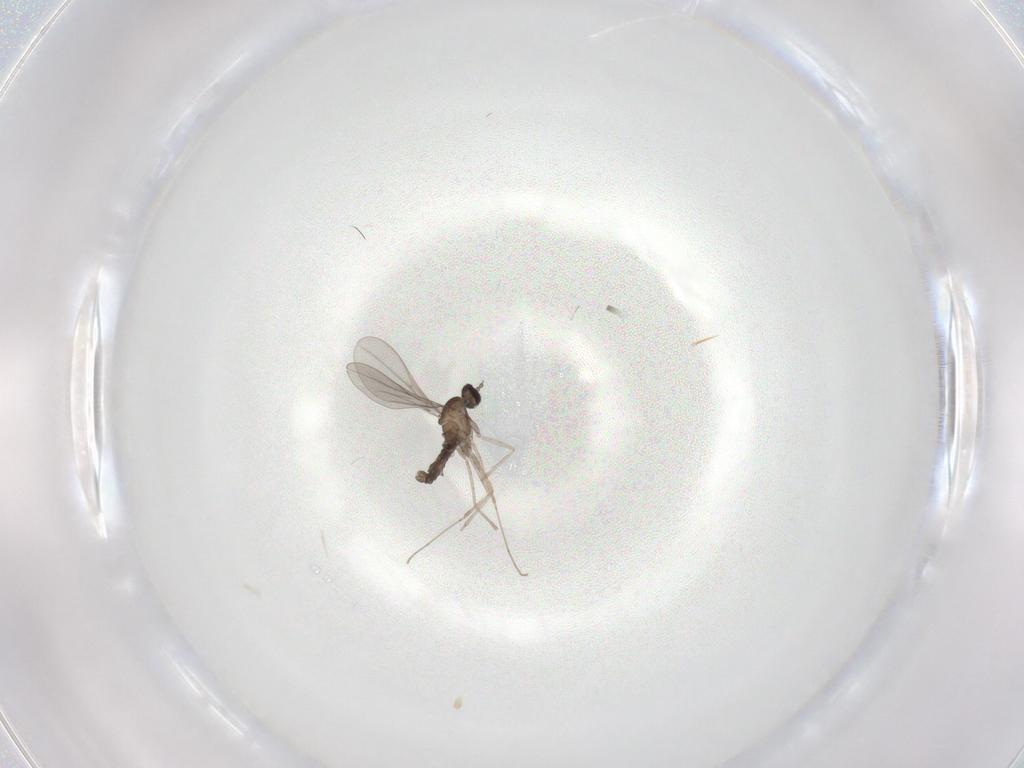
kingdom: Animalia
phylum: Arthropoda
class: Insecta
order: Diptera
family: Cecidomyiidae
